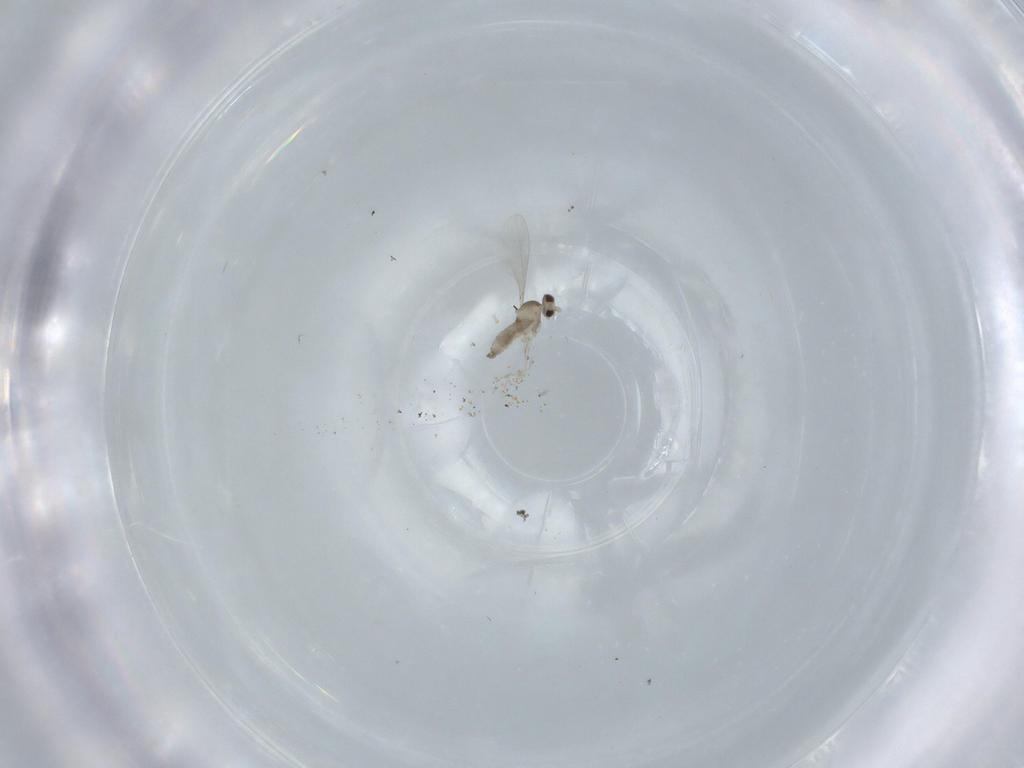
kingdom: Animalia
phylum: Arthropoda
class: Insecta
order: Diptera
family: Cecidomyiidae
